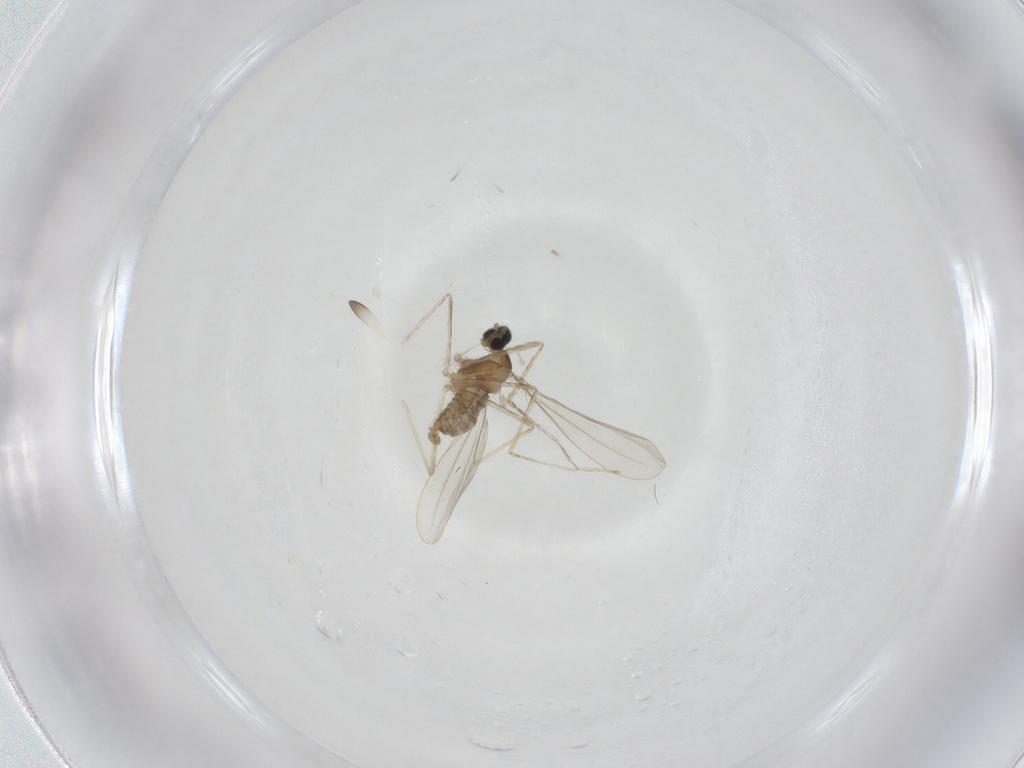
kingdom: Animalia
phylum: Arthropoda
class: Insecta
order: Diptera
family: Cecidomyiidae
